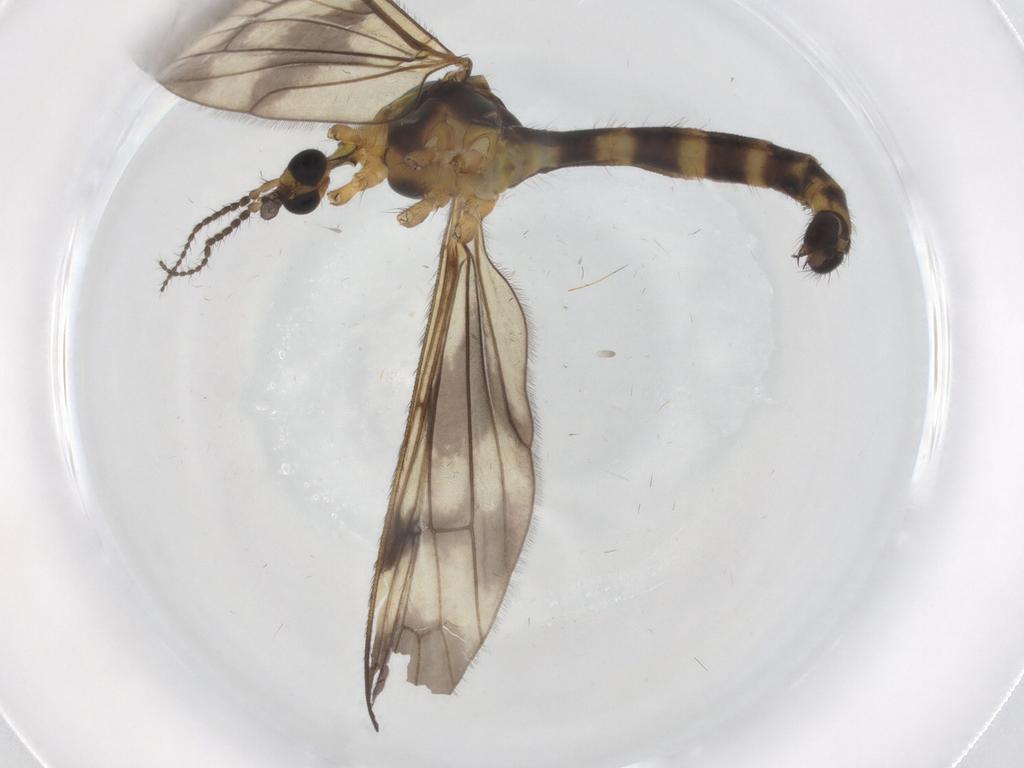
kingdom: Animalia
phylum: Arthropoda
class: Insecta
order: Diptera
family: Limoniidae
